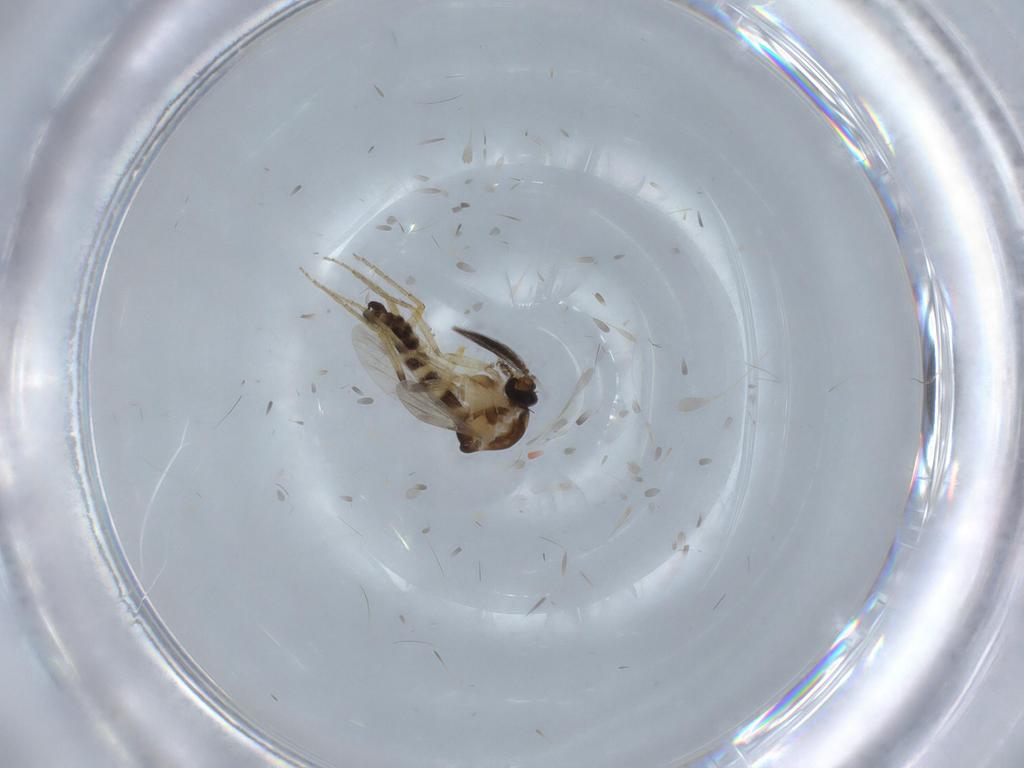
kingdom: Animalia
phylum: Arthropoda
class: Insecta
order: Diptera
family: Ceratopogonidae
